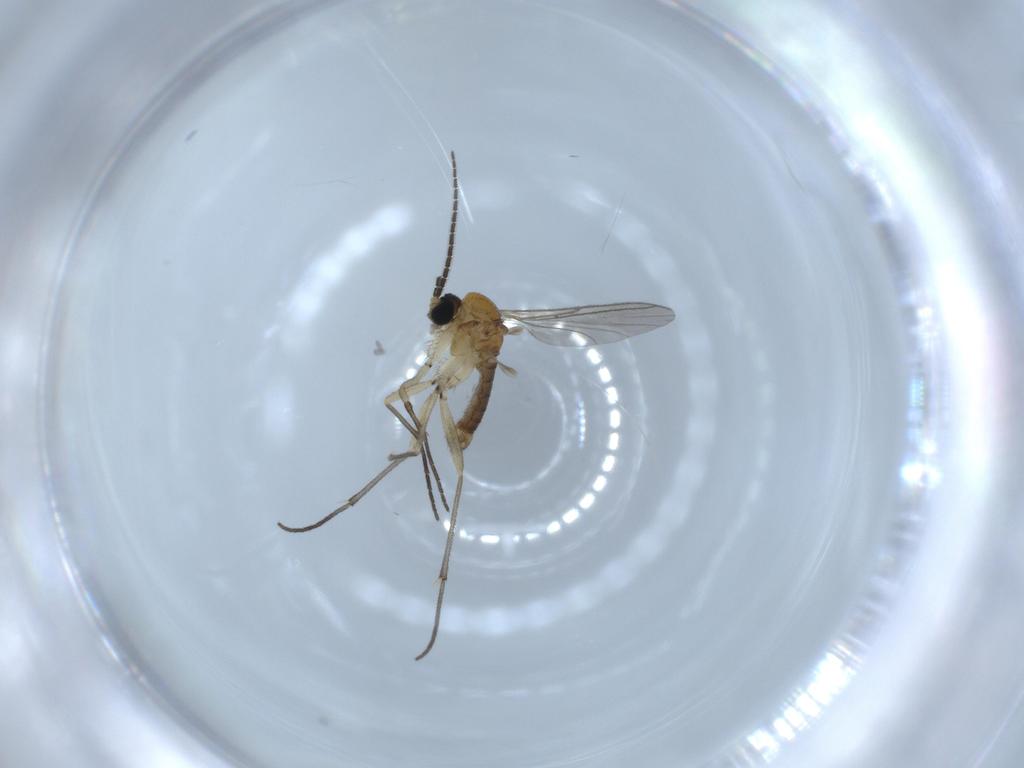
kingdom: Animalia
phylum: Arthropoda
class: Insecta
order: Diptera
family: Sciaridae
